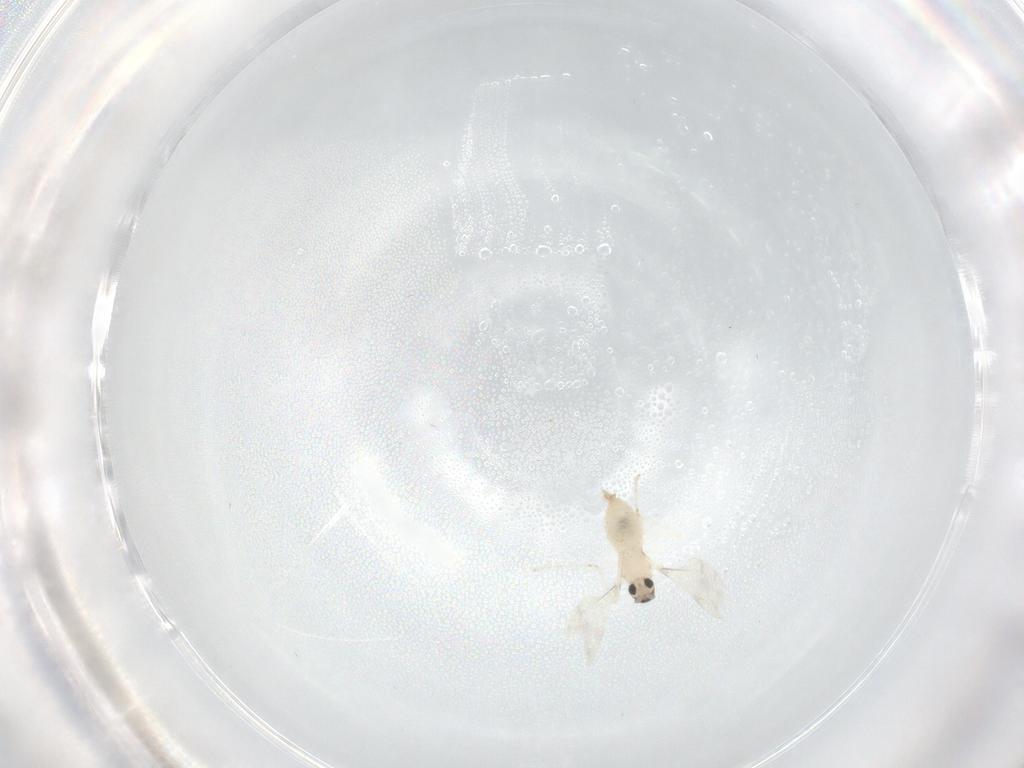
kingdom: Animalia
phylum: Arthropoda
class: Insecta
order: Diptera
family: Cecidomyiidae
